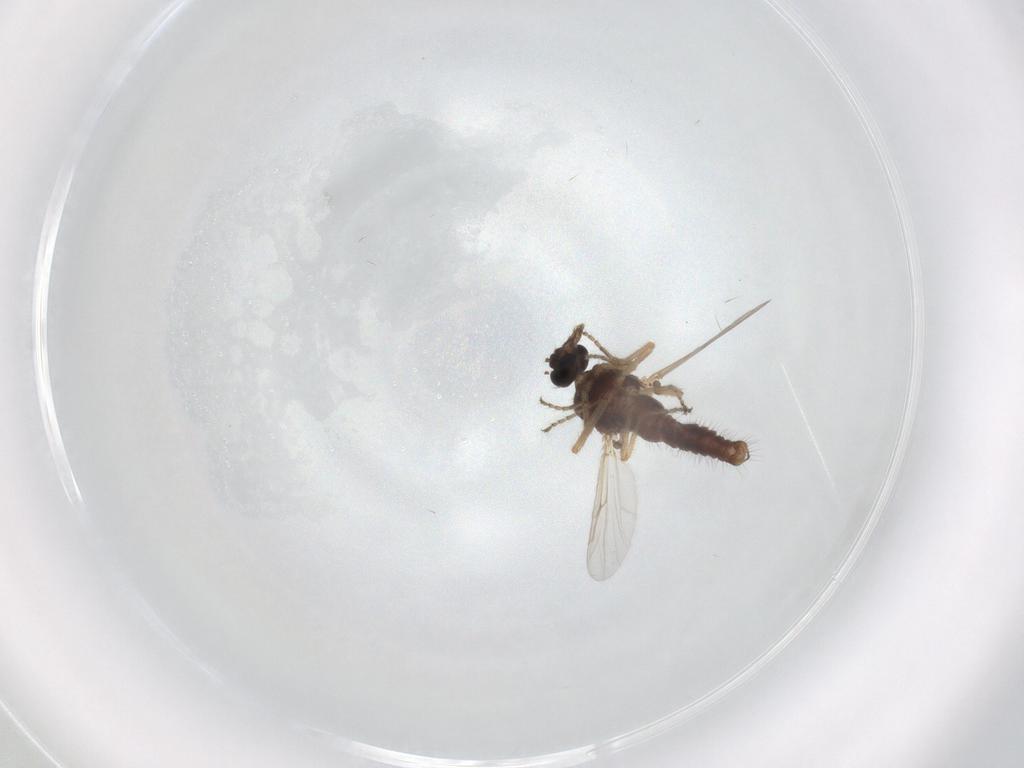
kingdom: Animalia
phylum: Arthropoda
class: Insecta
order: Diptera
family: Ceratopogonidae
